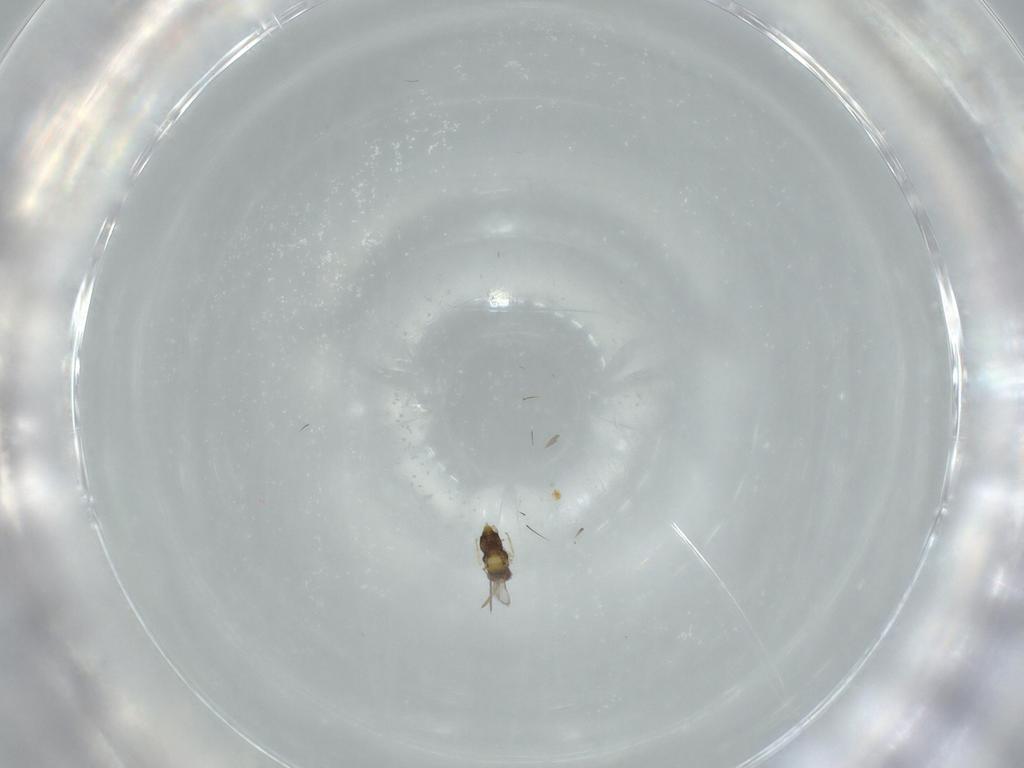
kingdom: Animalia
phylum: Arthropoda
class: Insecta
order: Hymenoptera
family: Aphelinidae
